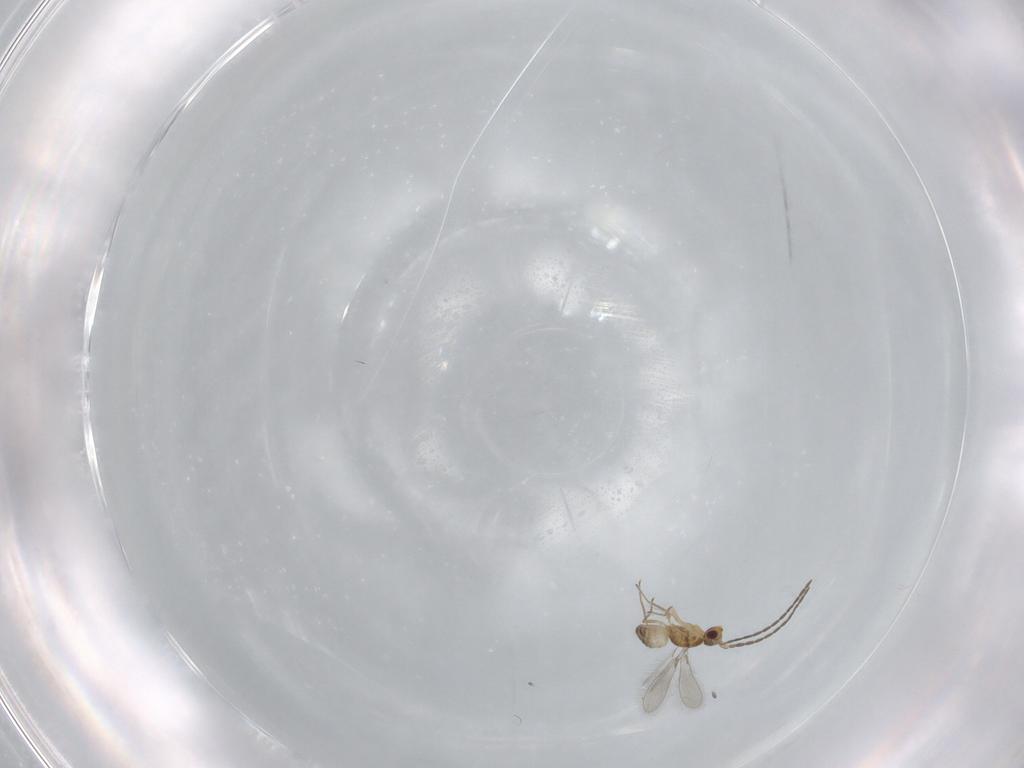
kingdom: Animalia
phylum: Arthropoda
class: Insecta
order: Hymenoptera
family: Mymaridae
